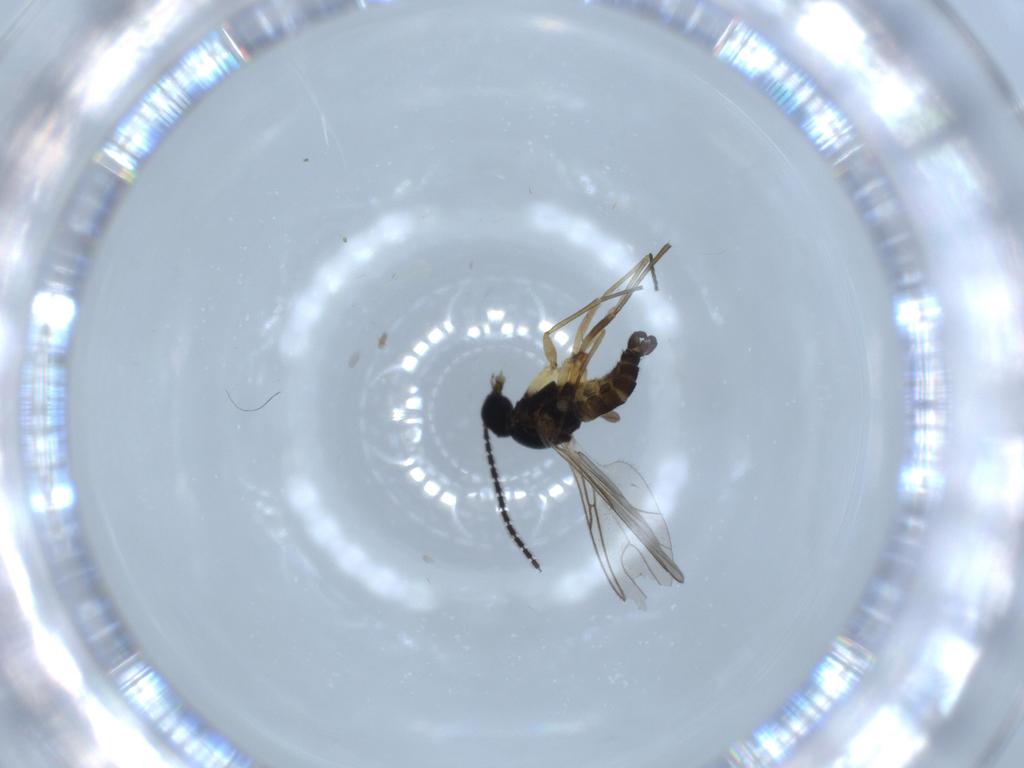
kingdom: Animalia
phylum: Arthropoda
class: Insecta
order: Diptera
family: Sciaridae
